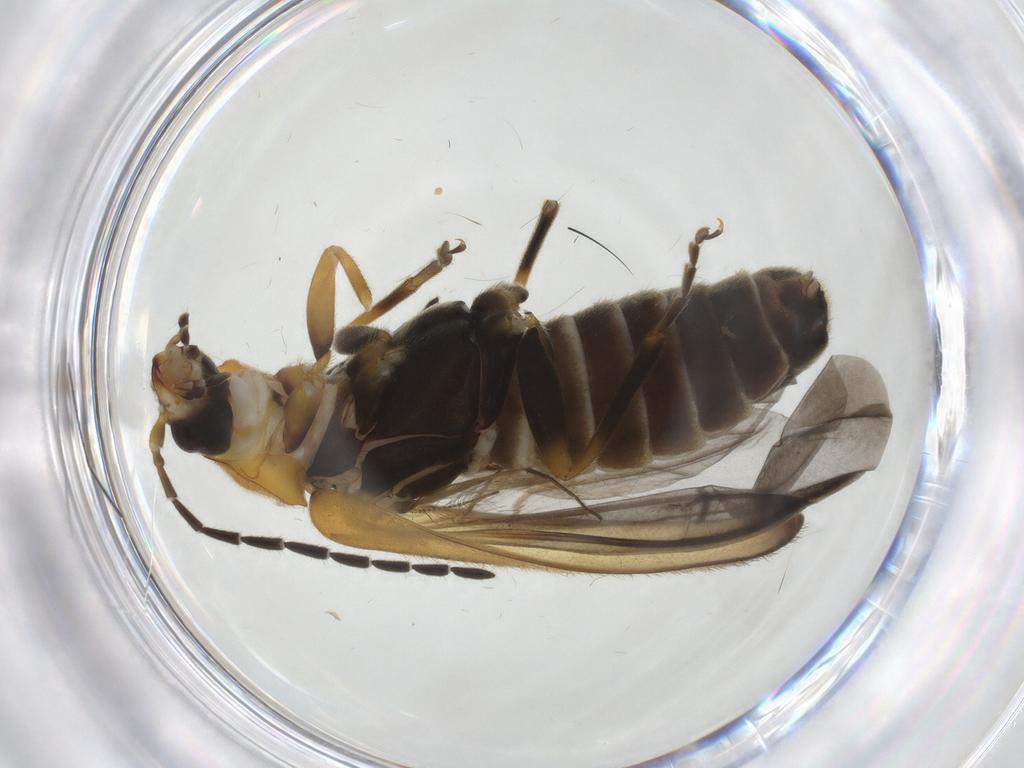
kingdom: Animalia
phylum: Arthropoda
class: Insecta
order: Coleoptera
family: Cantharidae
